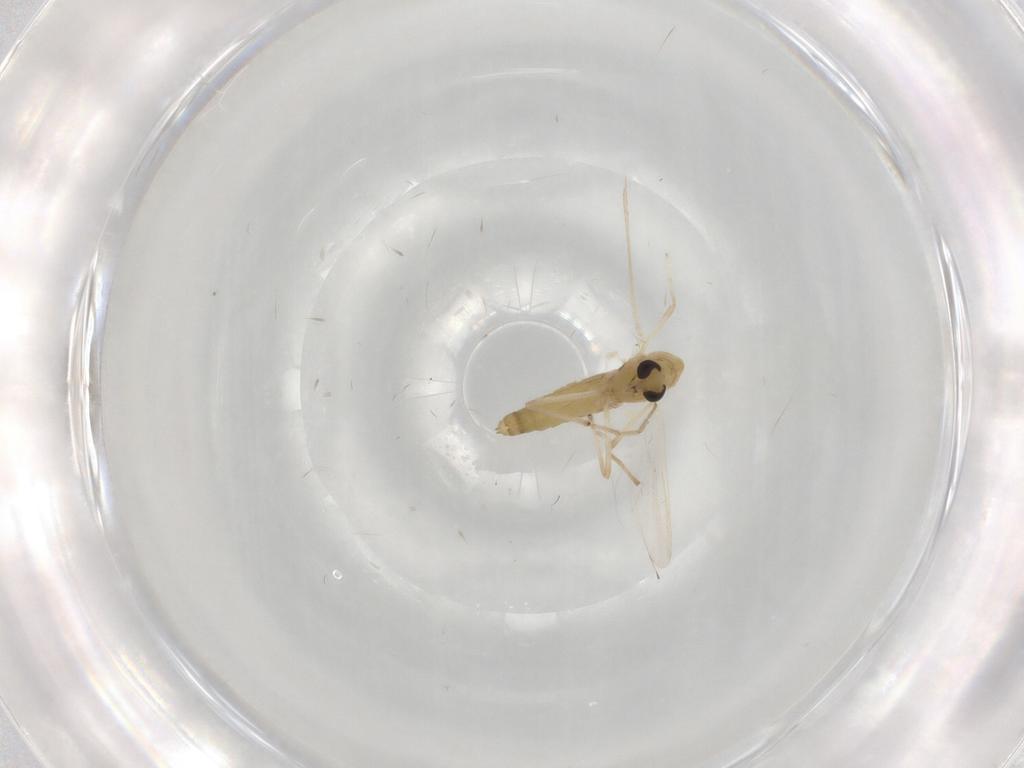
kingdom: Animalia
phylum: Arthropoda
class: Insecta
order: Diptera
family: Chironomidae
